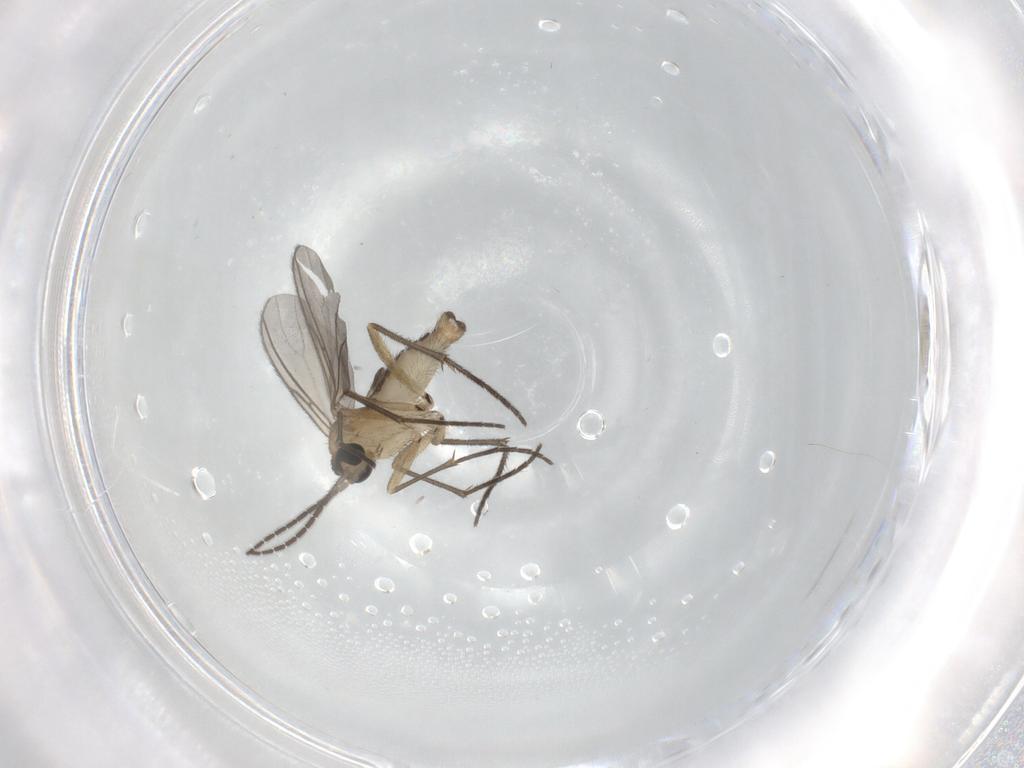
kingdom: Animalia
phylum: Arthropoda
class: Insecta
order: Diptera
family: Sciaridae
